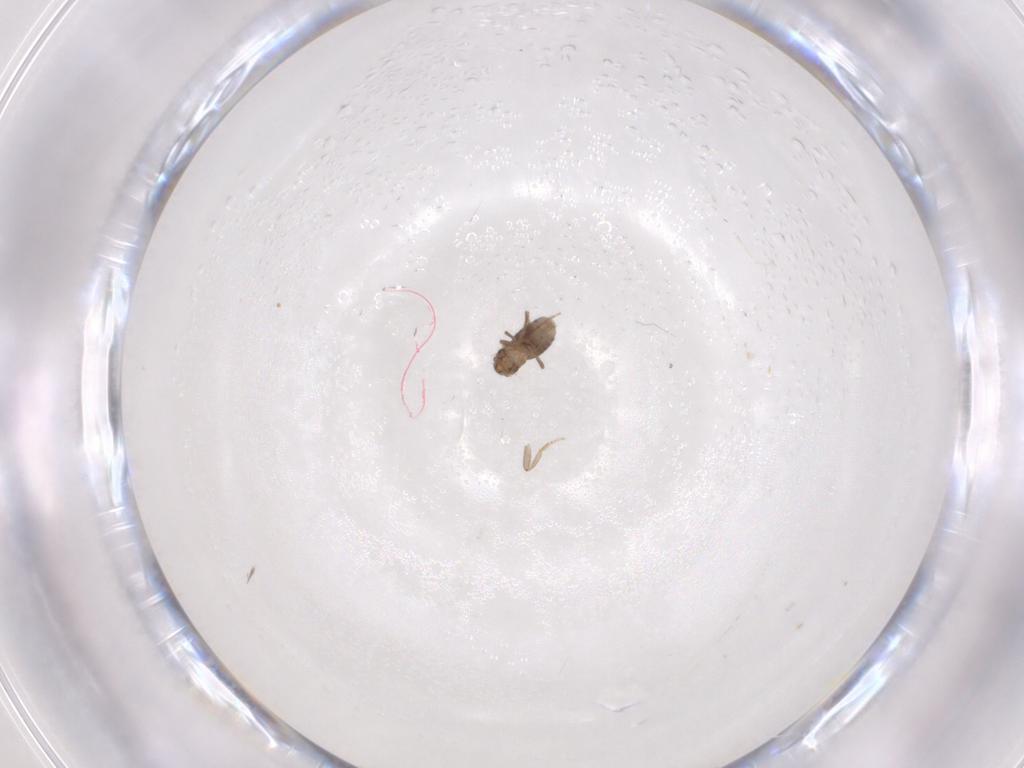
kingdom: Animalia
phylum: Arthropoda
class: Insecta
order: Diptera
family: Chironomidae
